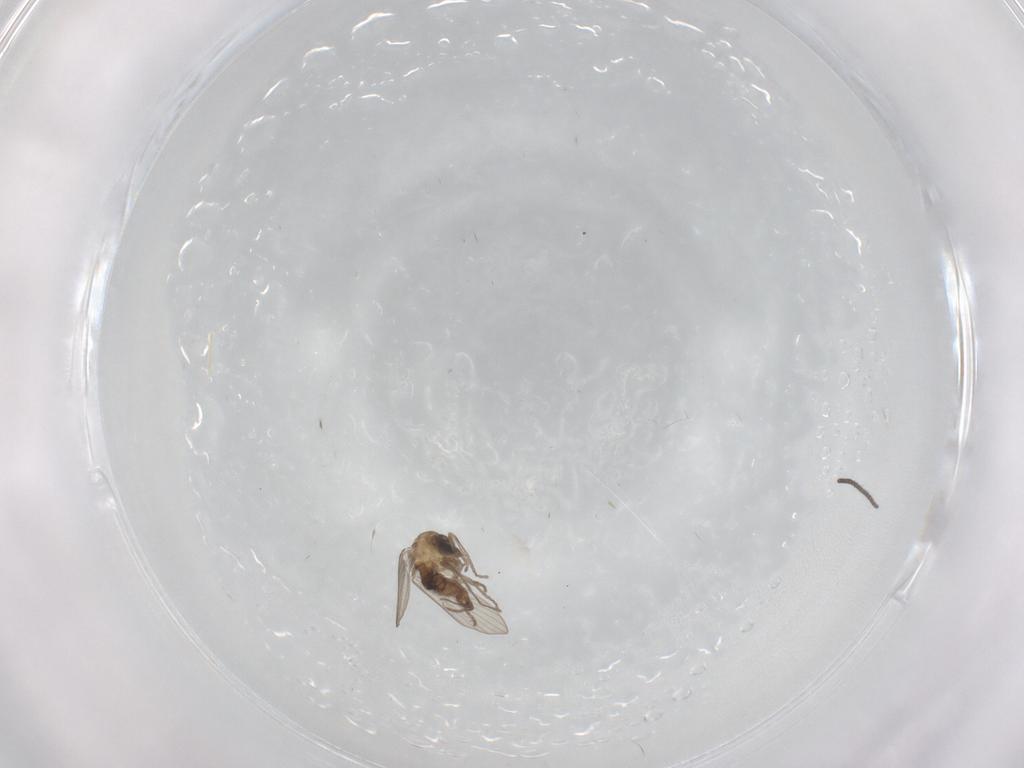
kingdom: Animalia
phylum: Arthropoda
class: Insecta
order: Diptera
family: Psychodidae
